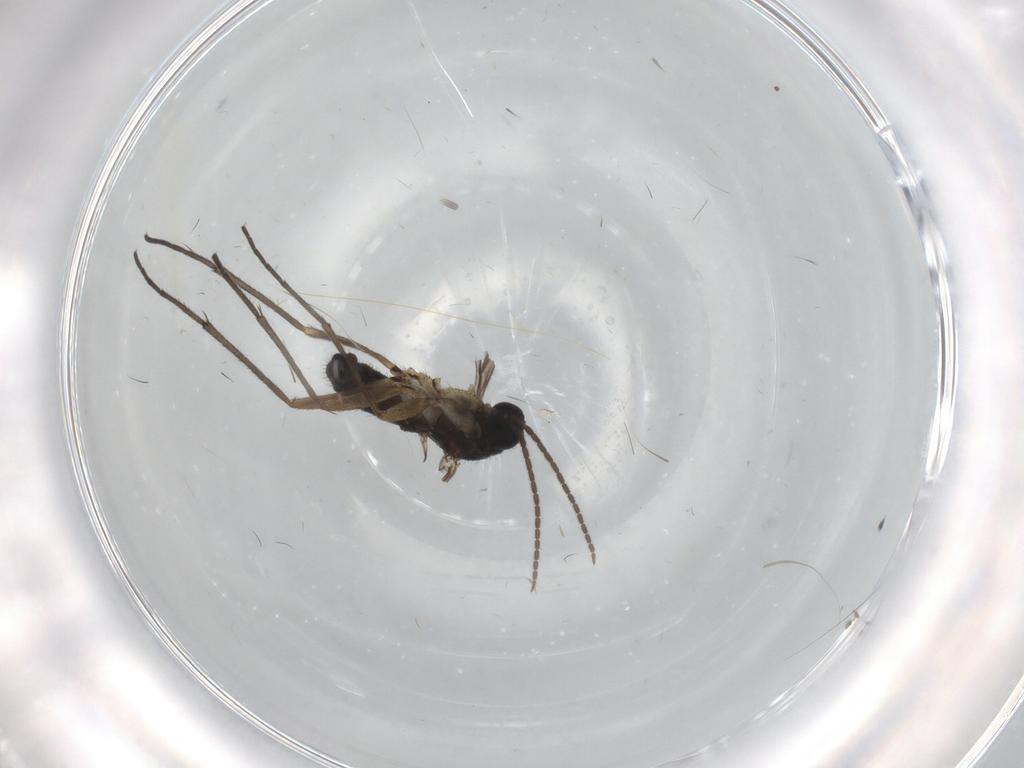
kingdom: Animalia
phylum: Arthropoda
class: Insecta
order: Diptera
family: Sciaridae
